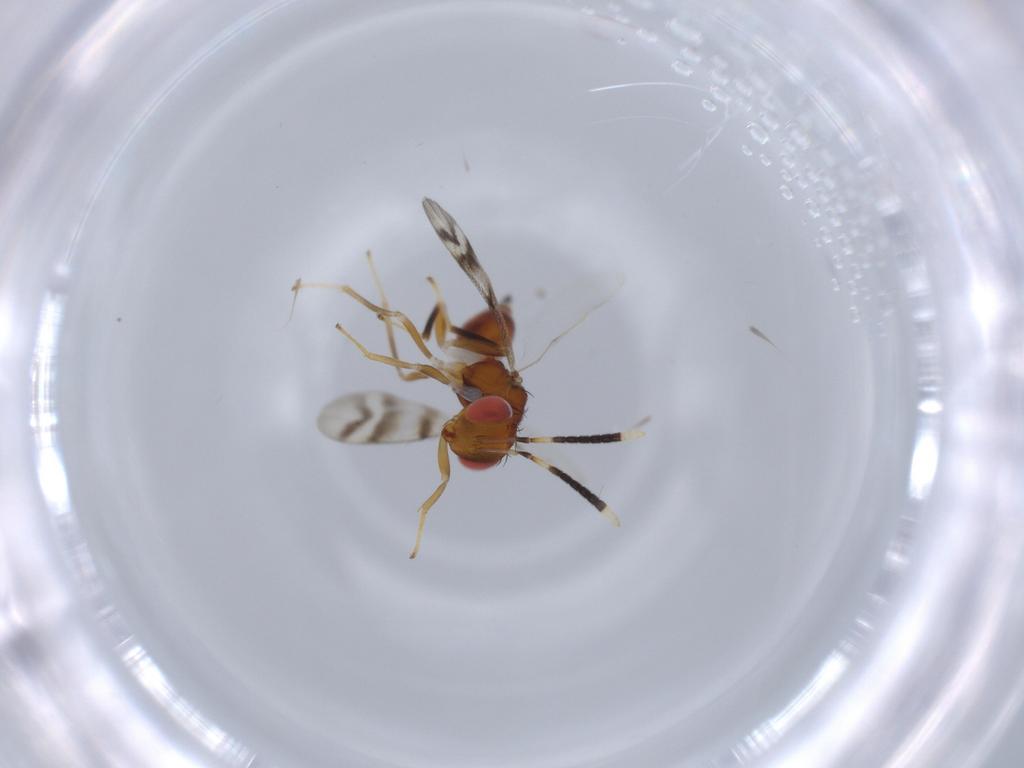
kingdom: Animalia
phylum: Arthropoda
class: Insecta
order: Hymenoptera
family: Diparidae
